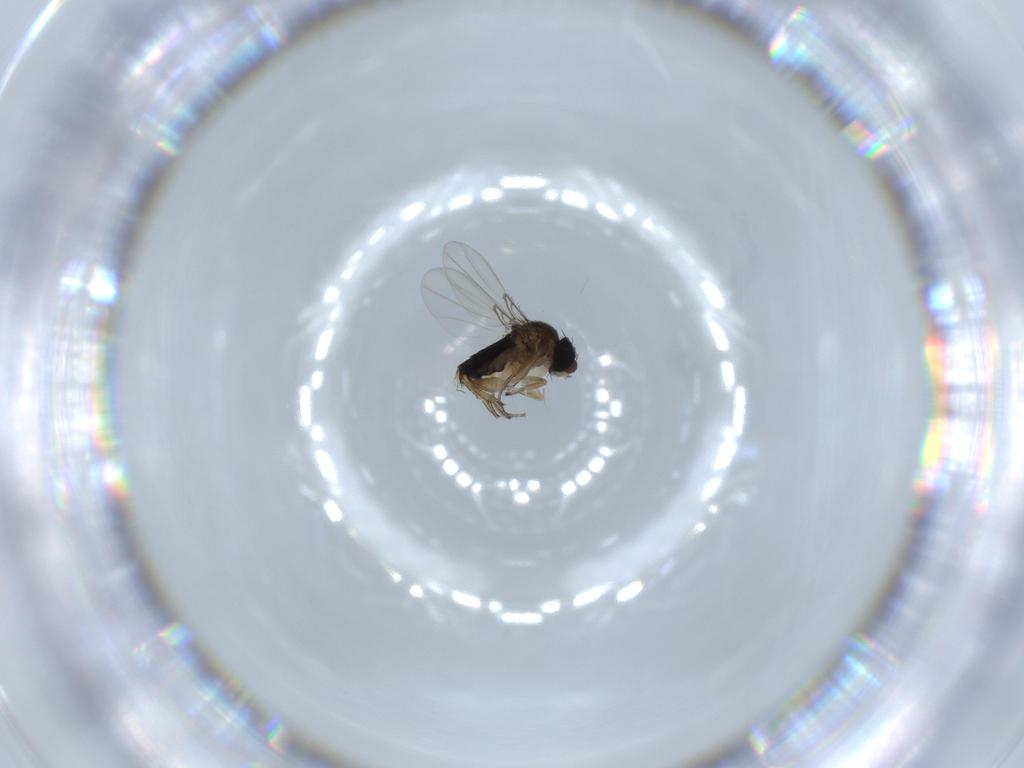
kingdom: Animalia
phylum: Arthropoda
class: Insecta
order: Diptera
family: Phoridae
